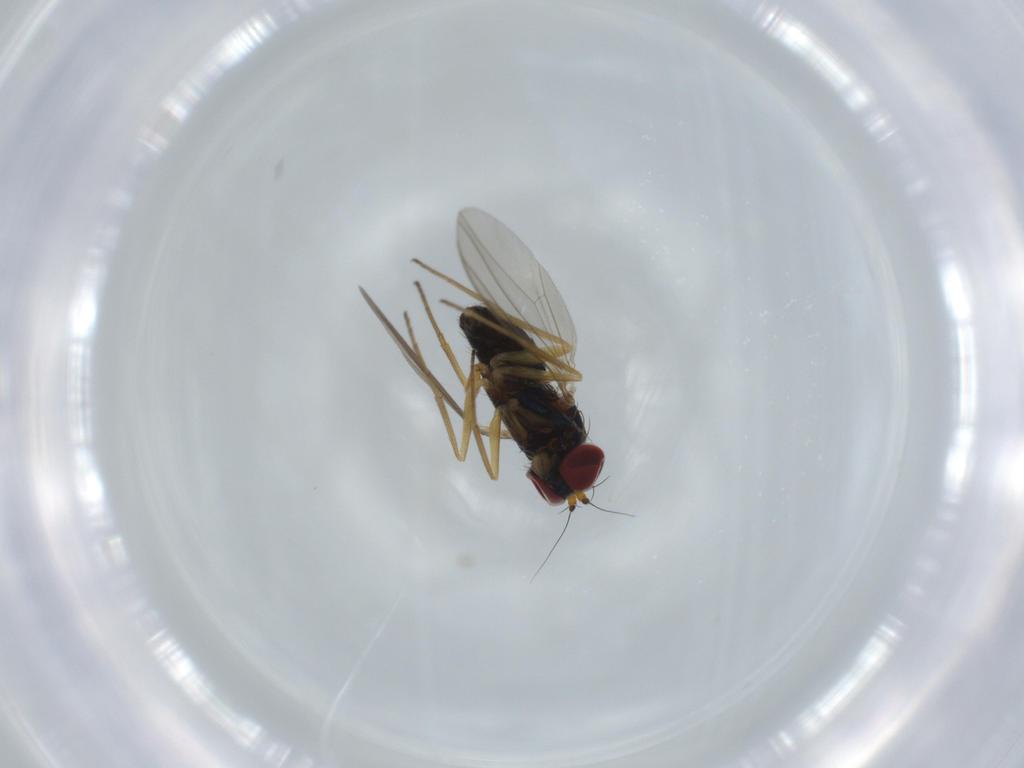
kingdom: Animalia
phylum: Arthropoda
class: Insecta
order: Diptera
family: Dolichopodidae
